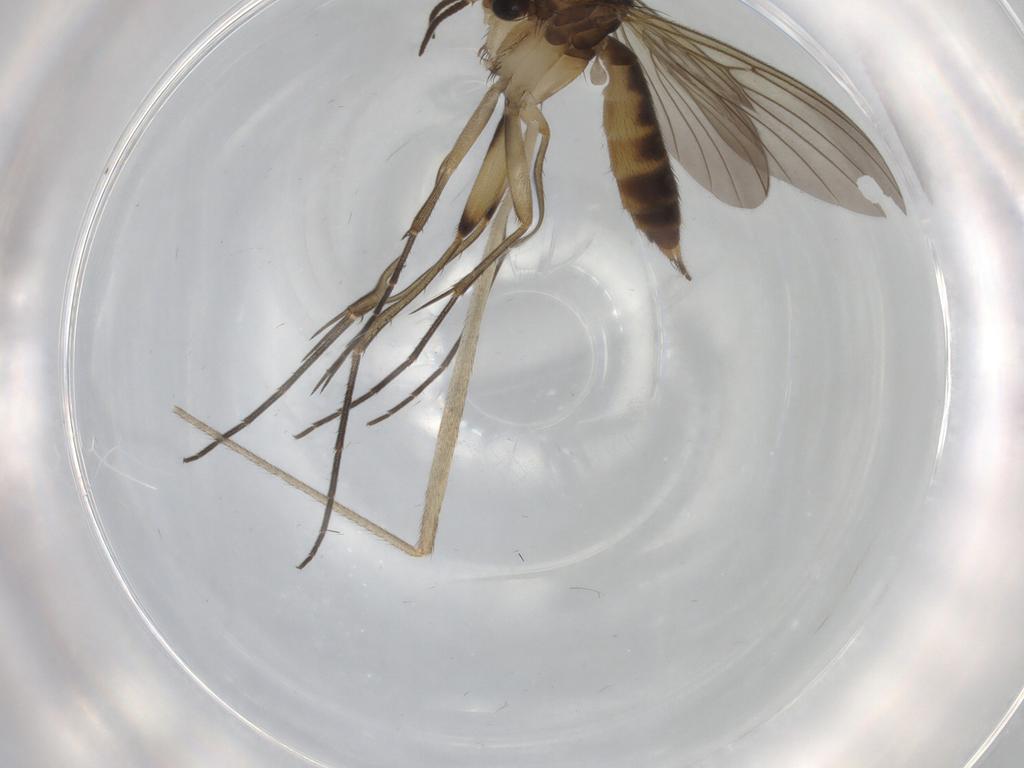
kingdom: Animalia
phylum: Arthropoda
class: Insecta
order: Diptera
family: Mycetophilidae
